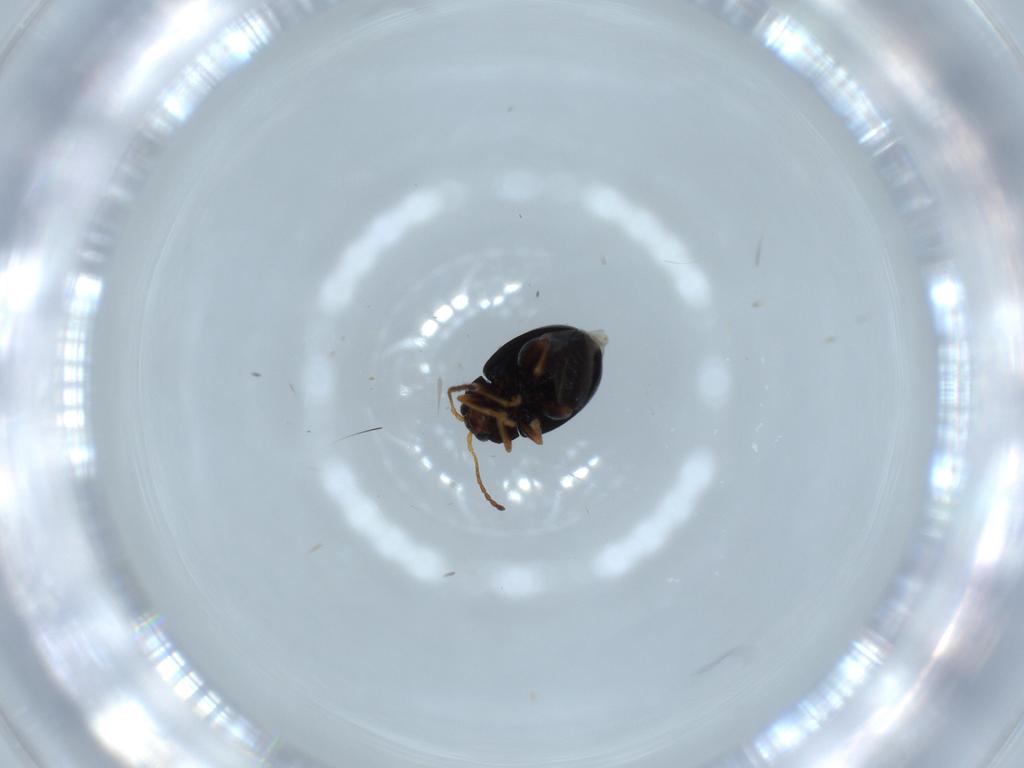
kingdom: Animalia
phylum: Arthropoda
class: Insecta
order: Coleoptera
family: Chrysomelidae
